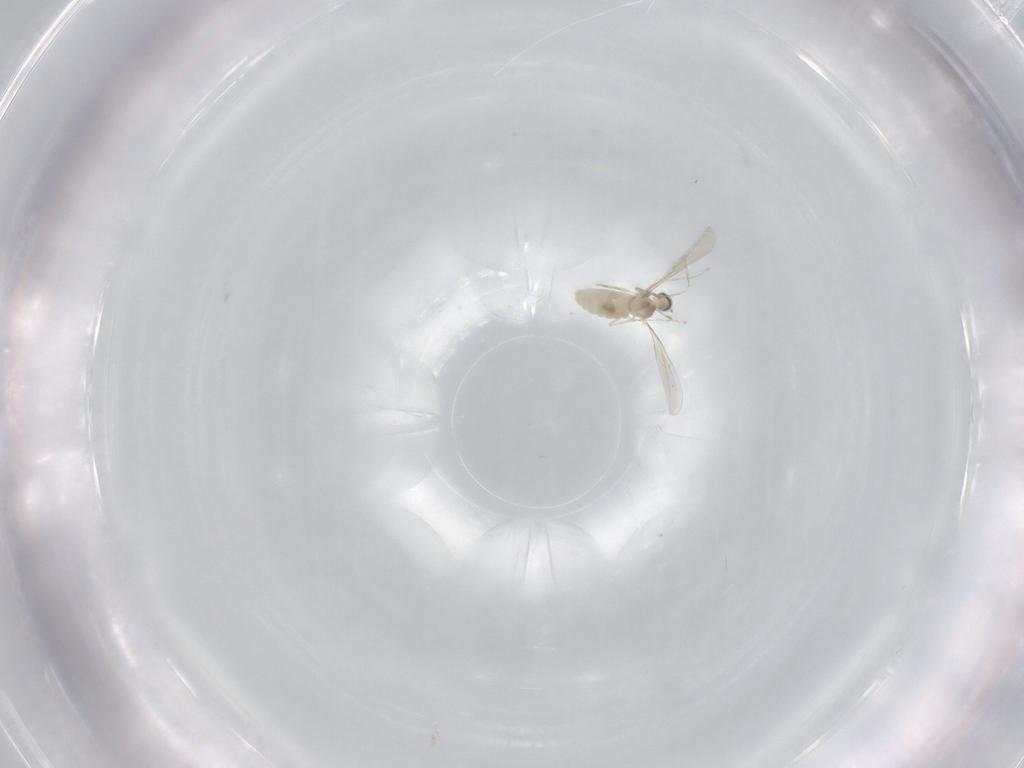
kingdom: Animalia
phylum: Arthropoda
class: Insecta
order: Diptera
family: Cecidomyiidae
